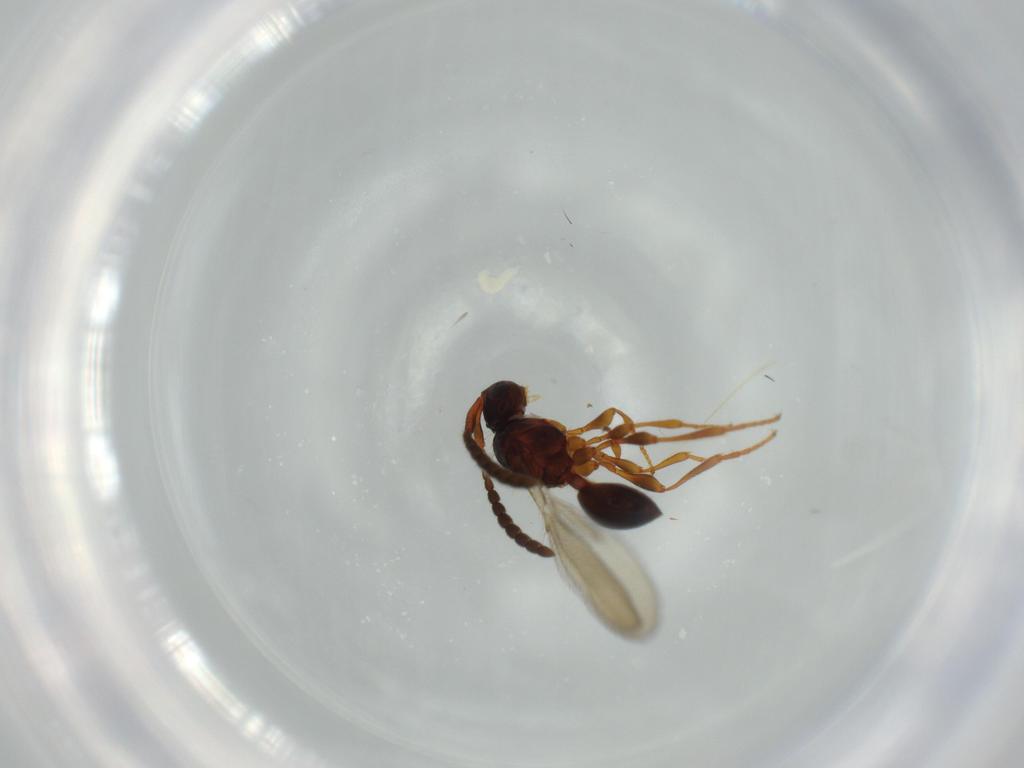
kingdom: Animalia
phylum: Arthropoda
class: Insecta
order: Hymenoptera
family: Diapriidae
